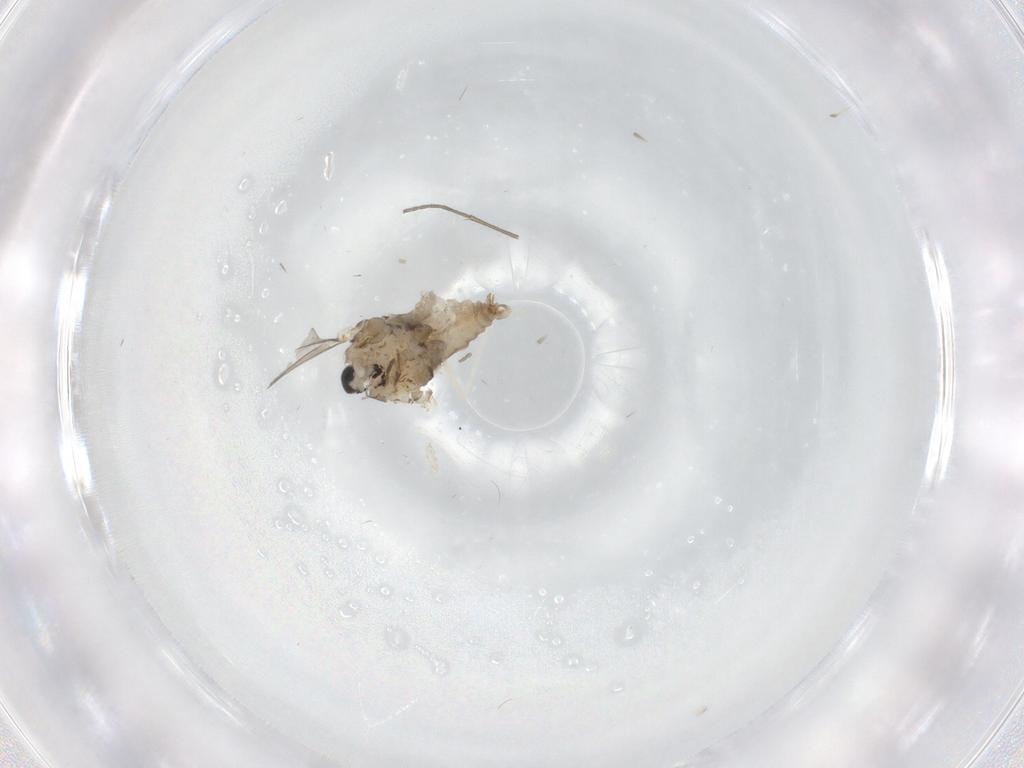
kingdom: Animalia
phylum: Arthropoda
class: Insecta
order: Diptera
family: Cecidomyiidae
